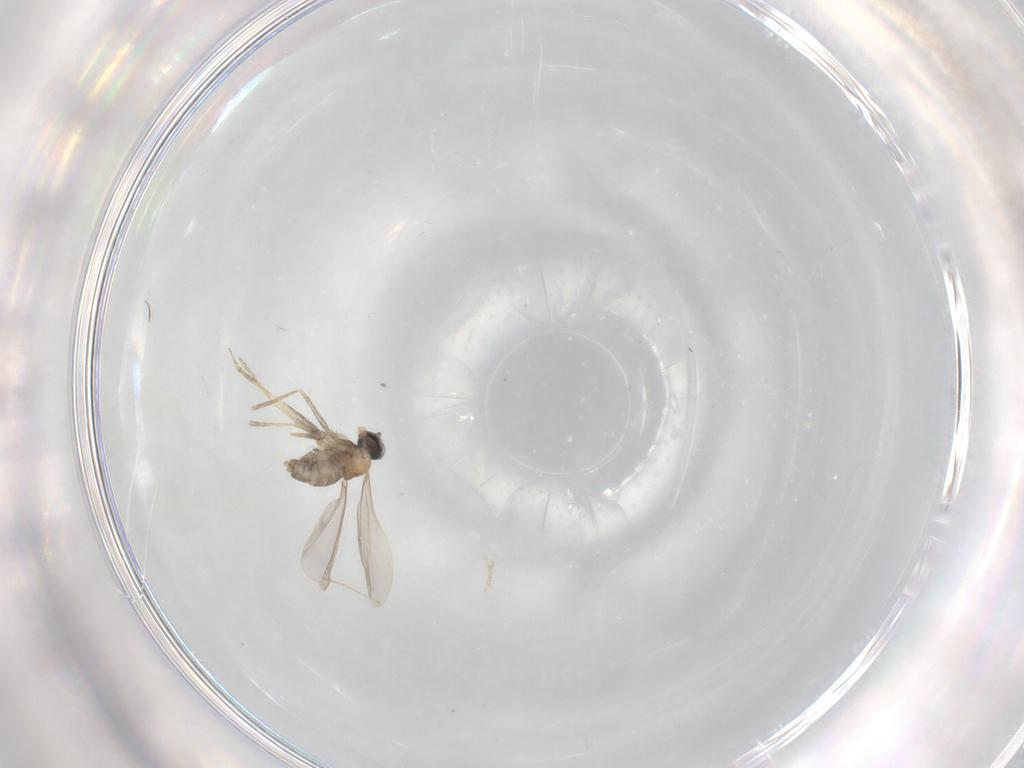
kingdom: Animalia
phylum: Arthropoda
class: Insecta
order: Diptera
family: Cecidomyiidae
